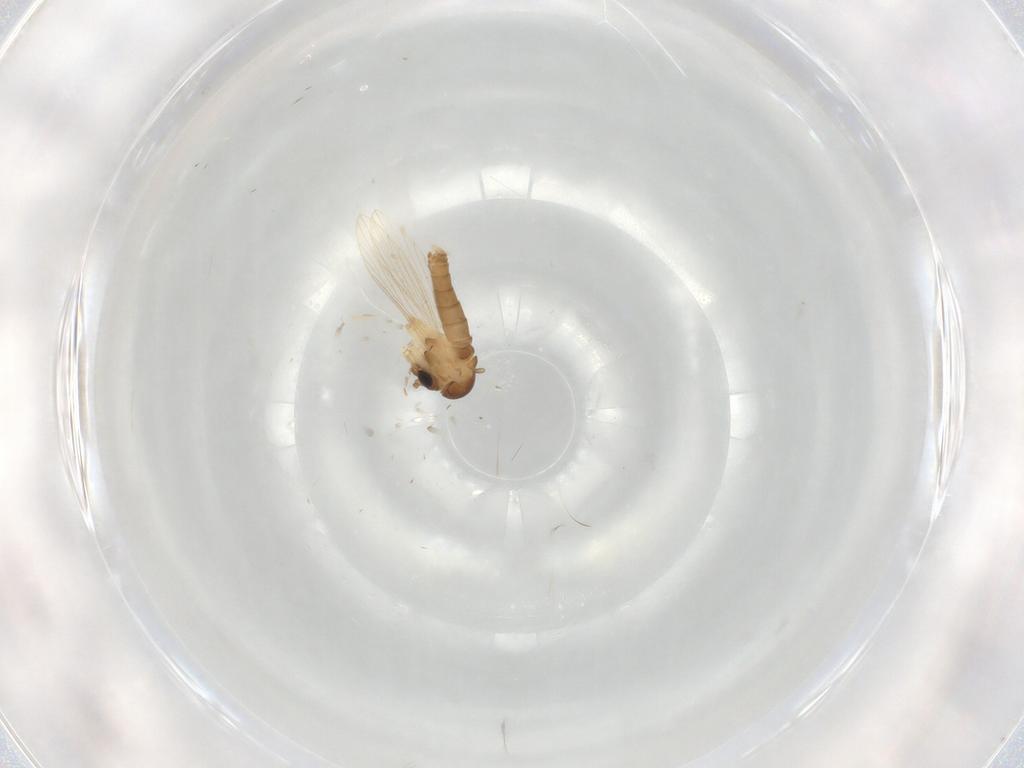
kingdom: Animalia
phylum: Arthropoda
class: Insecta
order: Diptera
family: Psychodidae
